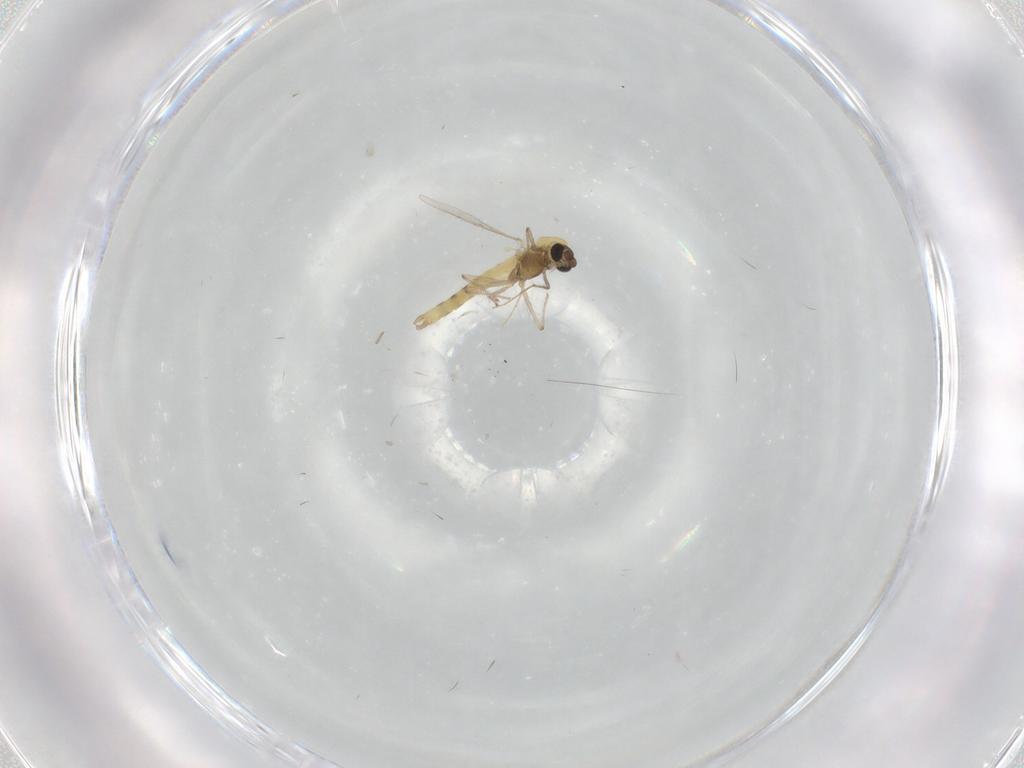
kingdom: Animalia
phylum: Arthropoda
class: Insecta
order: Diptera
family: Chironomidae
